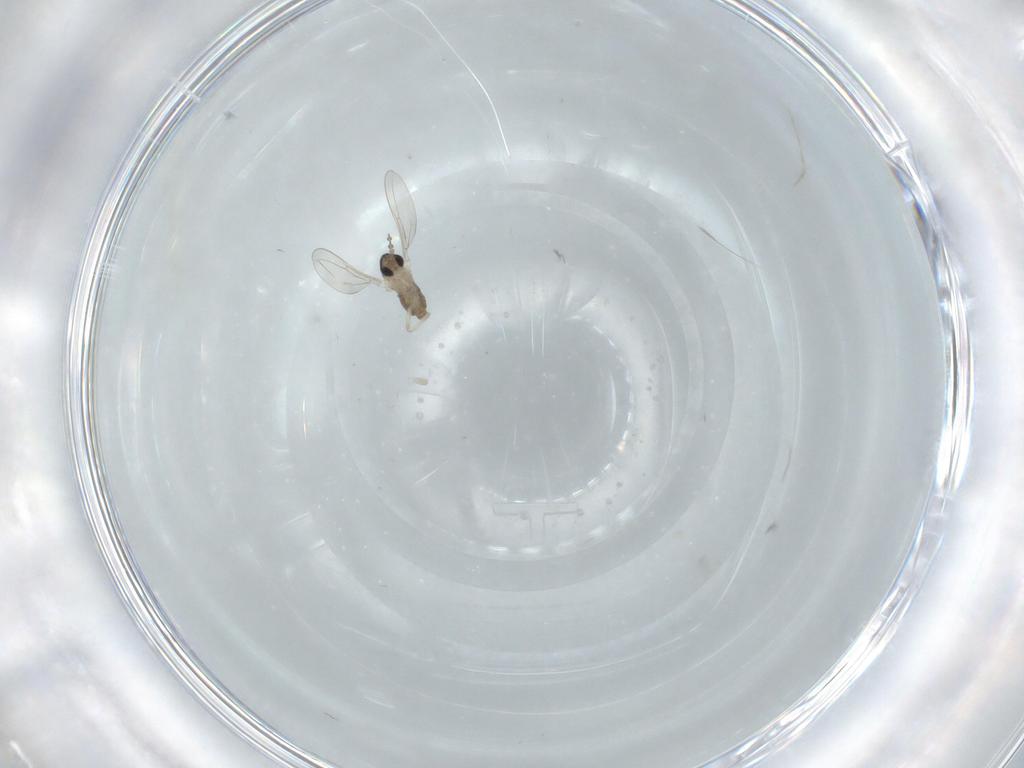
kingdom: Animalia
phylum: Arthropoda
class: Insecta
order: Diptera
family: Cecidomyiidae
